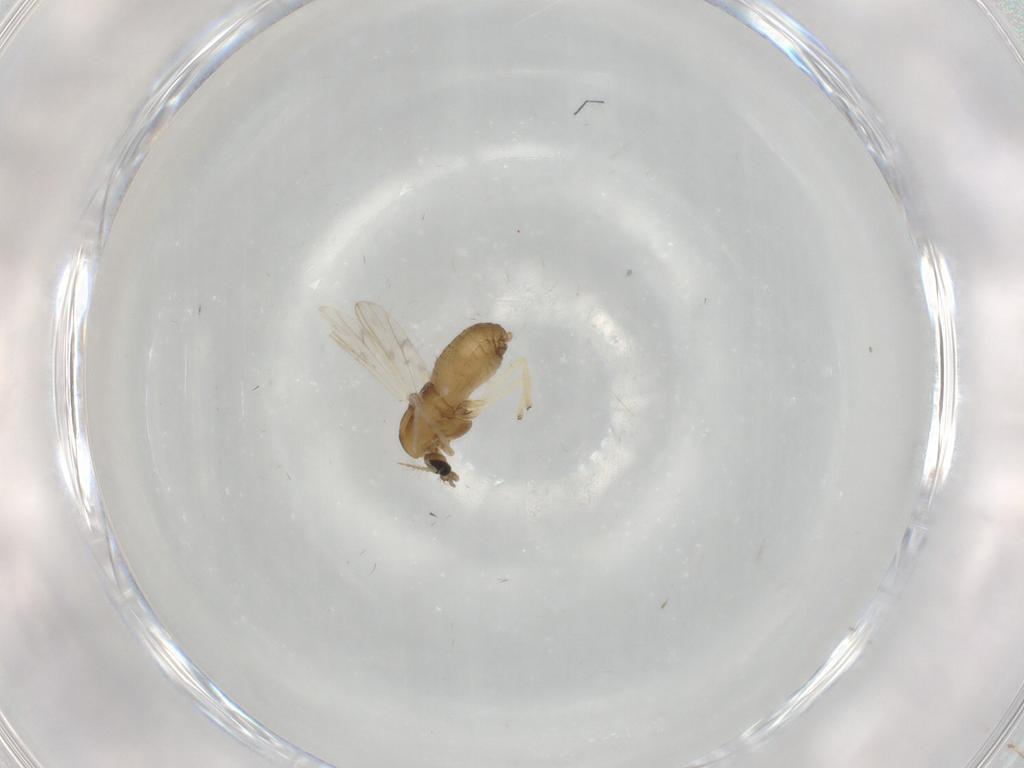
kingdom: Animalia
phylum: Arthropoda
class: Insecta
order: Diptera
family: Chironomidae
